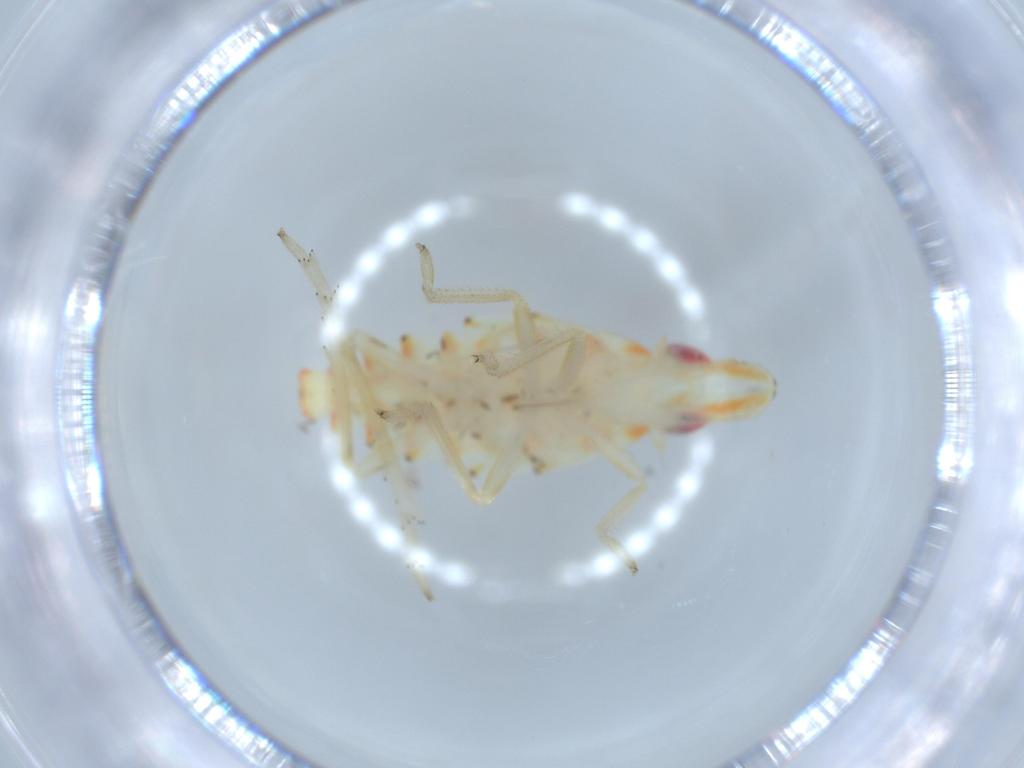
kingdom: Animalia
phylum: Arthropoda
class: Insecta
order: Hemiptera
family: Tropiduchidae
